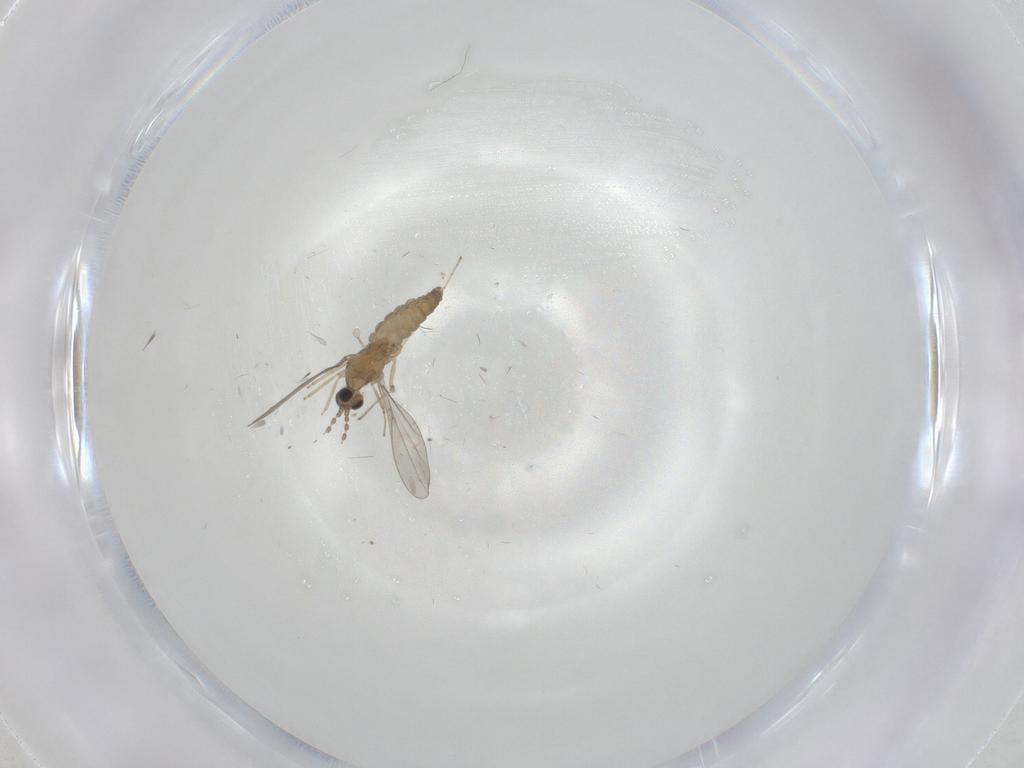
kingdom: Animalia
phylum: Arthropoda
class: Insecta
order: Diptera
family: Cecidomyiidae
